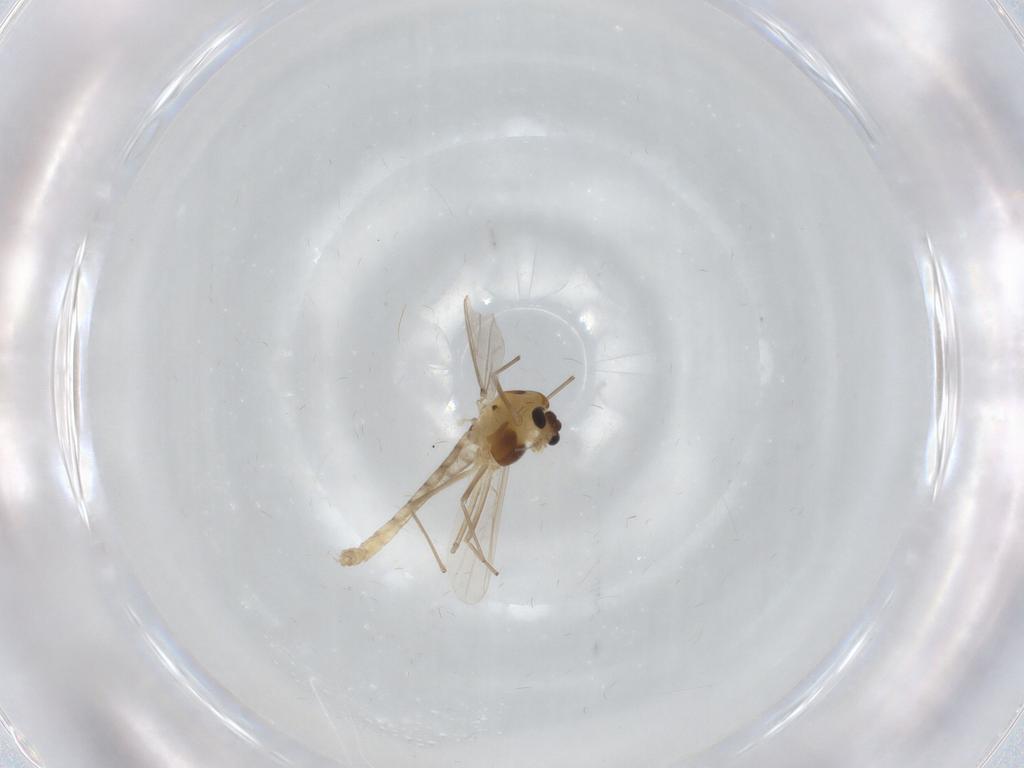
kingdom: Animalia
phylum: Arthropoda
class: Insecta
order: Diptera
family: Chironomidae
